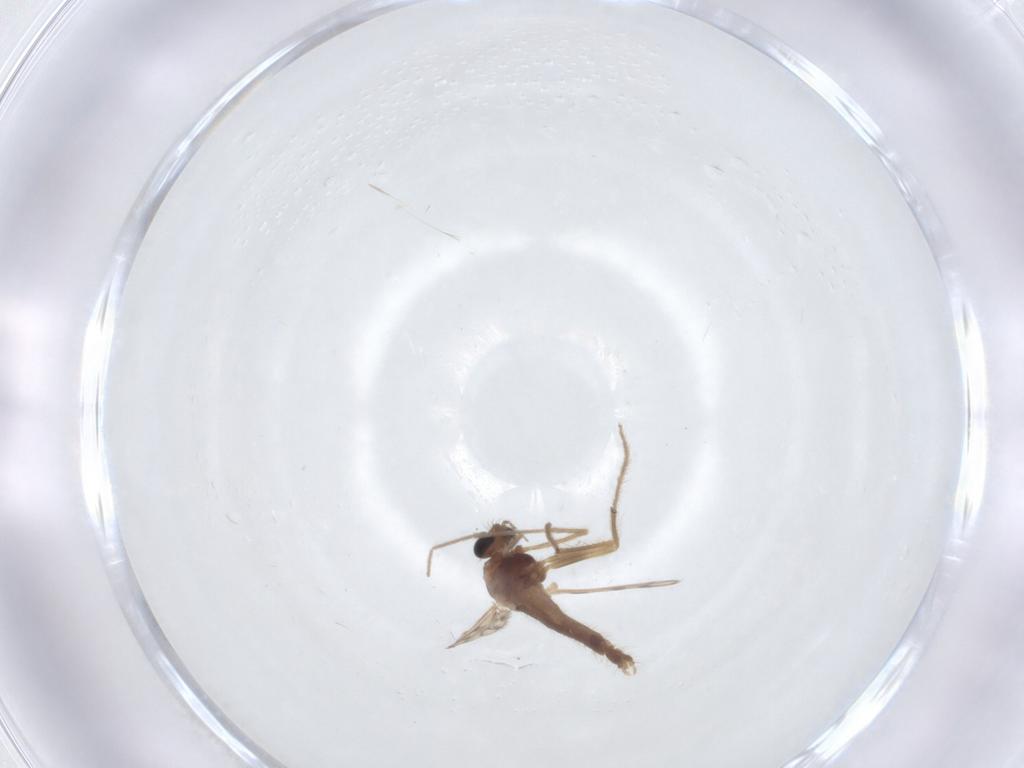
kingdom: Animalia
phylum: Arthropoda
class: Insecta
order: Diptera
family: Chironomidae
